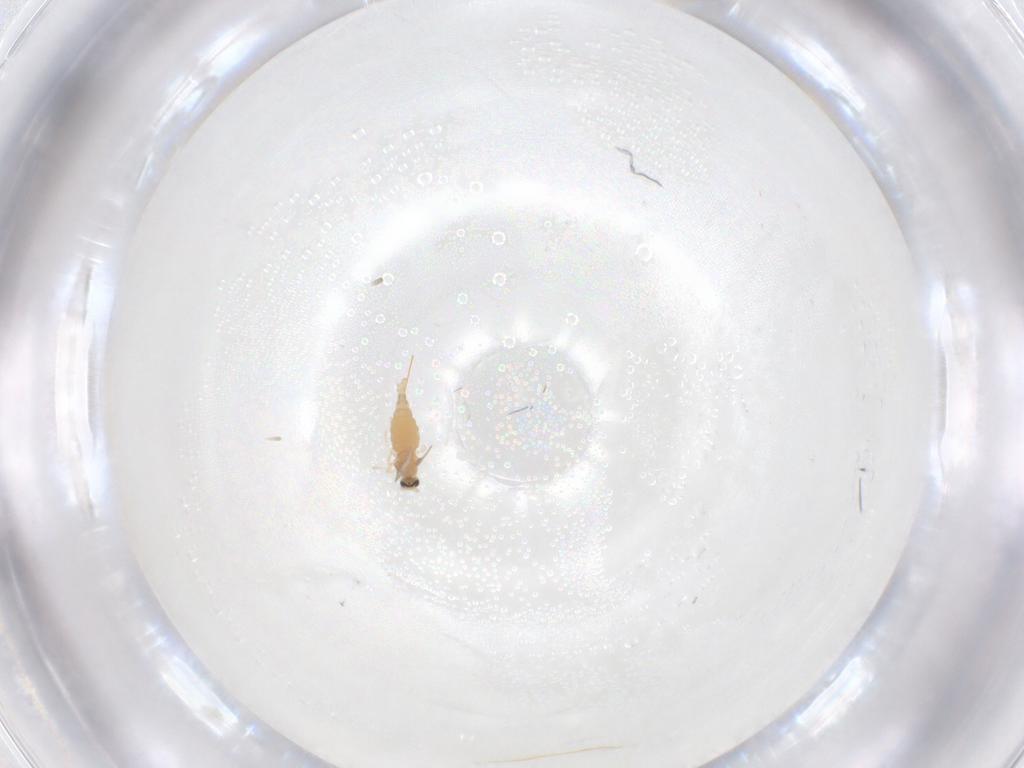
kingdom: Animalia
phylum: Arthropoda
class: Insecta
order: Diptera
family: Cecidomyiidae
